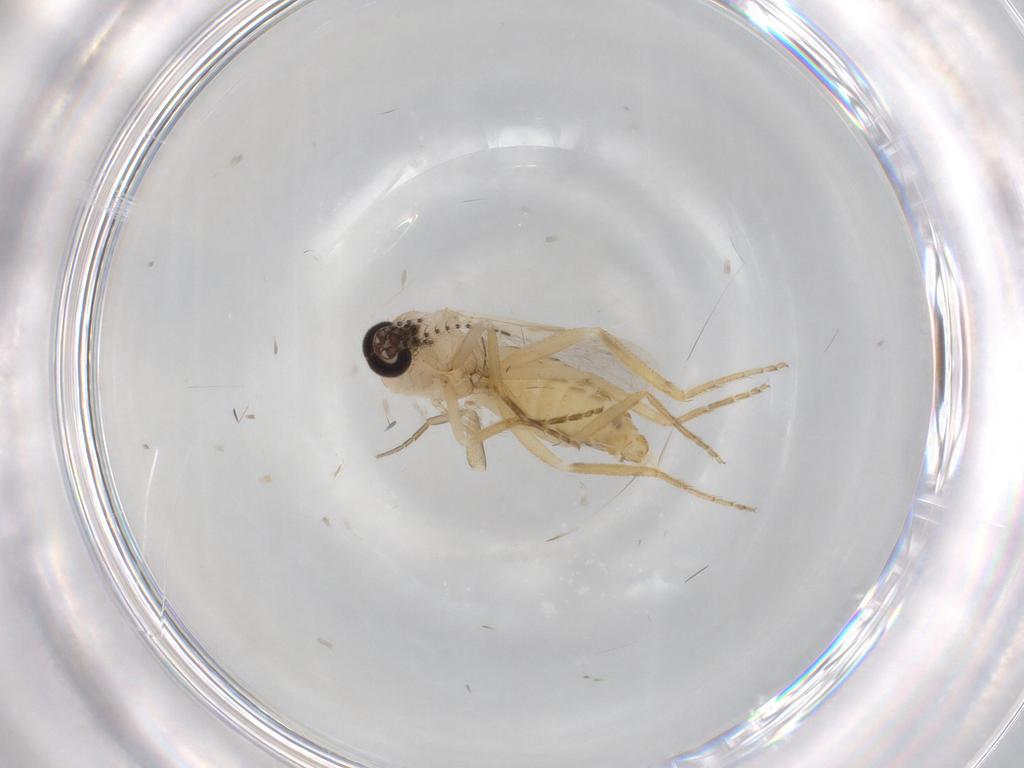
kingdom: Animalia
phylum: Arthropoda
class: Insecta
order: Diptera
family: Ceratopogonidae
